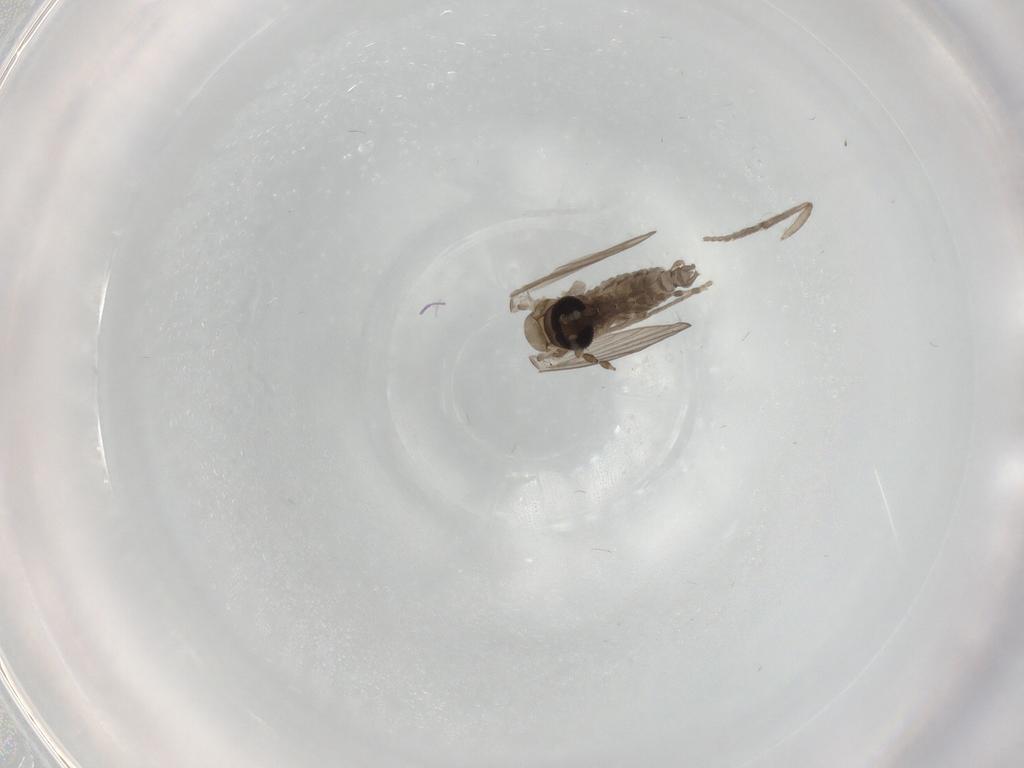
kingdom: Animalia
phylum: Arthropoda
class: Insecta
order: Diptera
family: Psychodidae
